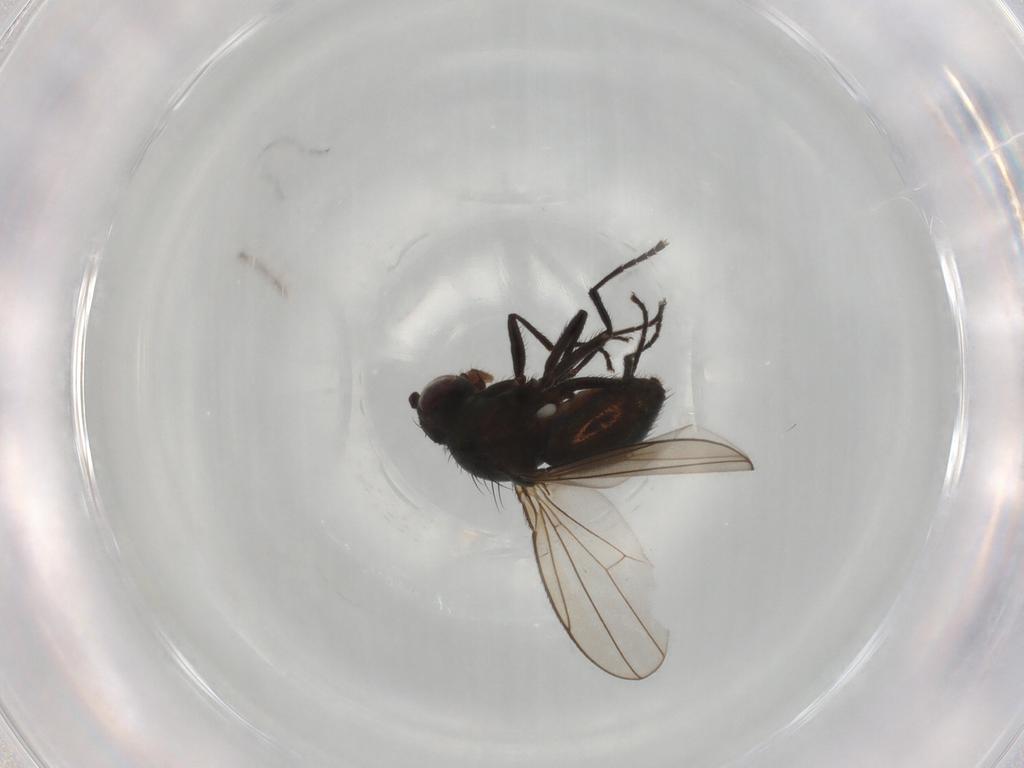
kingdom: Animalia
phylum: Arthropoda
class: Insecta
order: Diptera
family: Ephydridae
